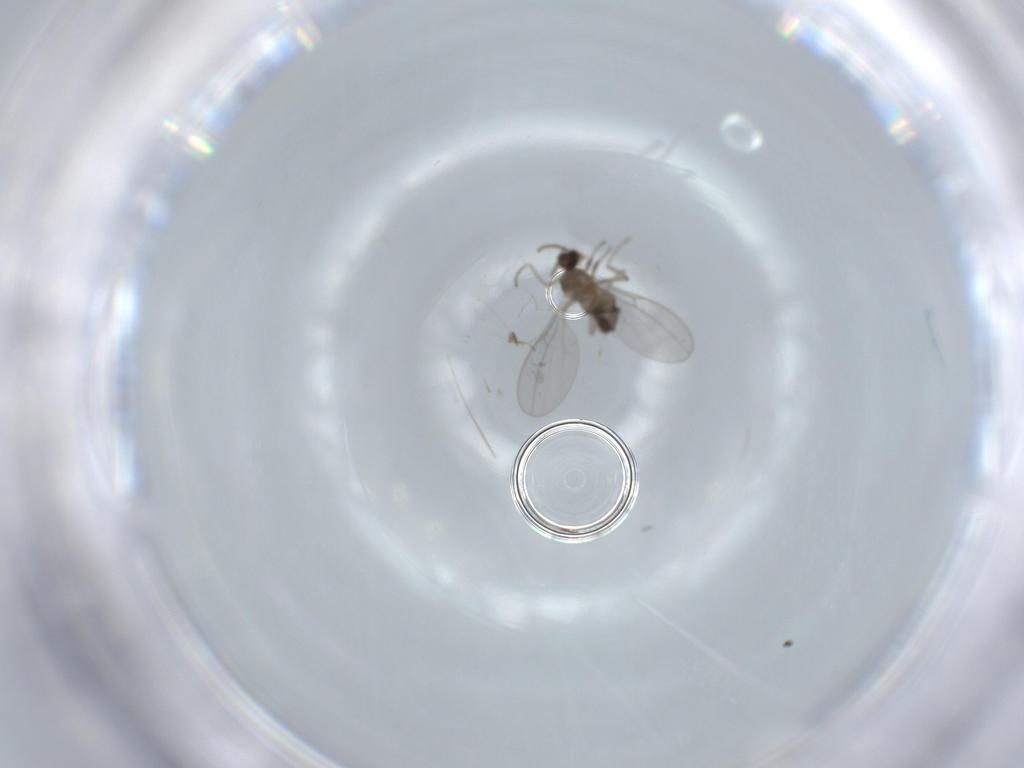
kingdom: Animalia
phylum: Arthropoda
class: Insecta
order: Diptera
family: Cecidomyiidae
